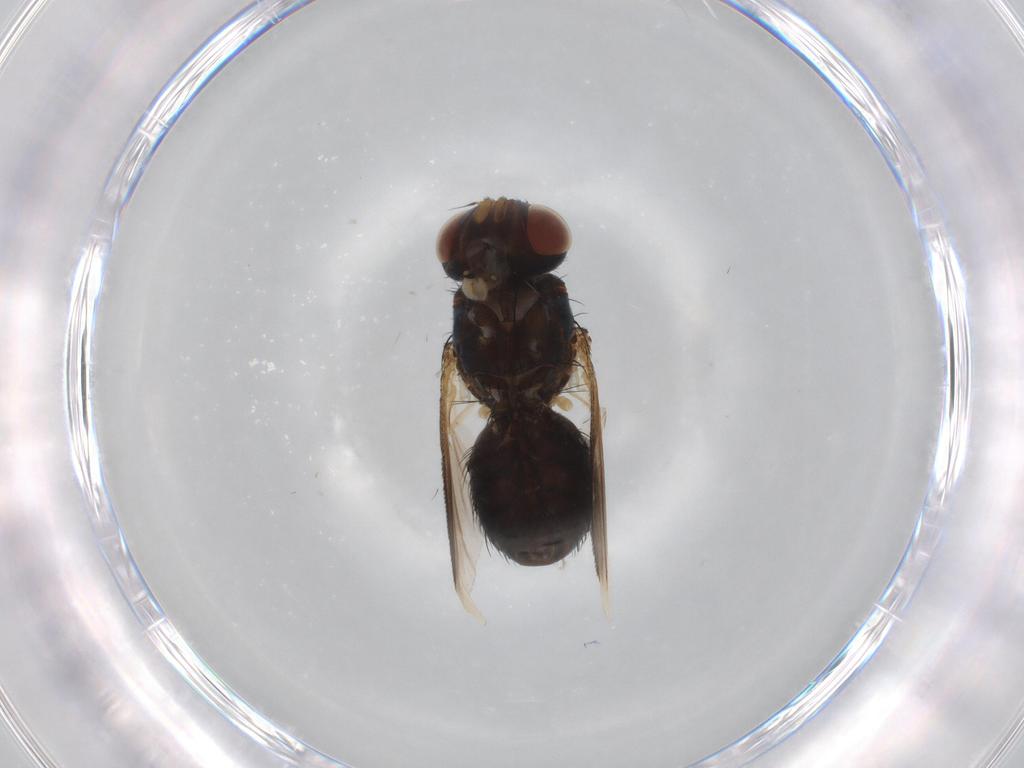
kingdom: Animalia
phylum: Arthropoda
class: Insecta
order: Diptera
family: Tachinidae
